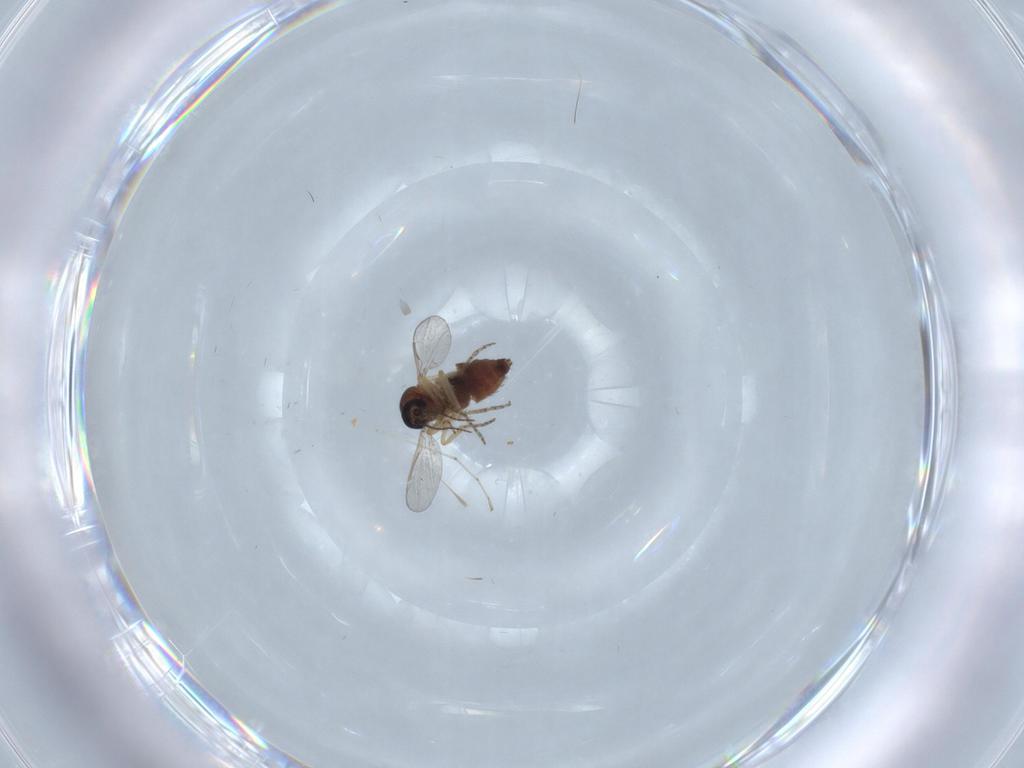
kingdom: Animalia
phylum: Arthropoda
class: Insecta
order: Diptera
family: Ceratopogonidae
